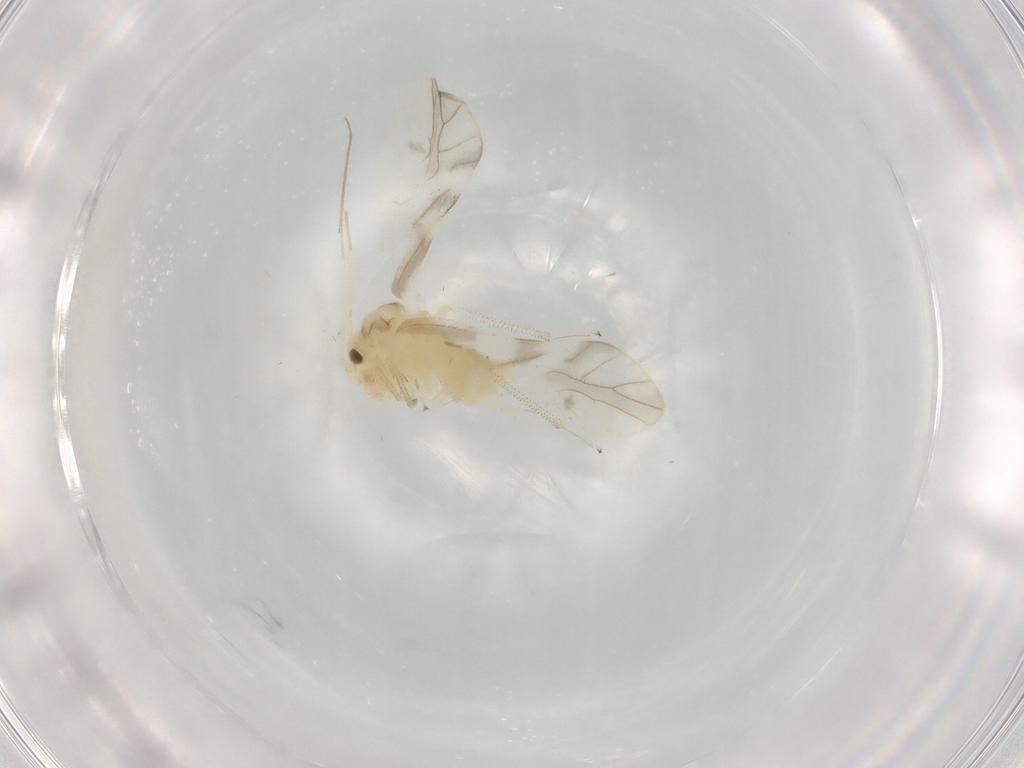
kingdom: Animalia
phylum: Arthropoda
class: Insecta
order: Psocodea
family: Caeciliusidae
